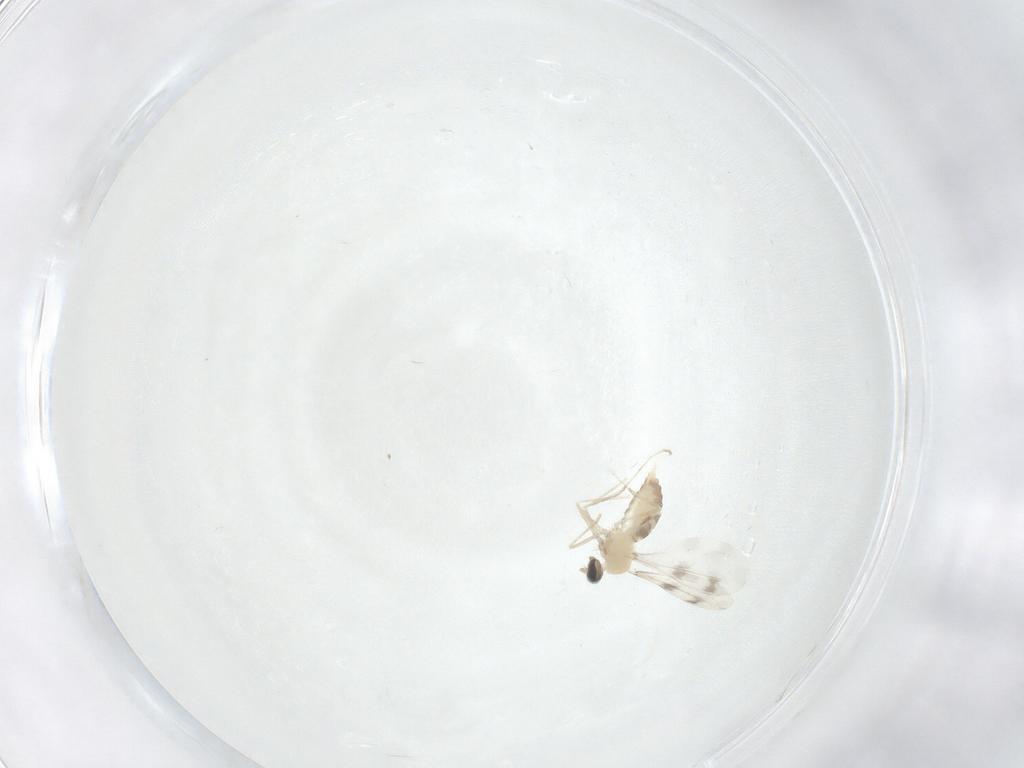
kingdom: Animalia
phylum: Arthropoda
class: Insecta
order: Diptera
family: Cecidomyiidae
